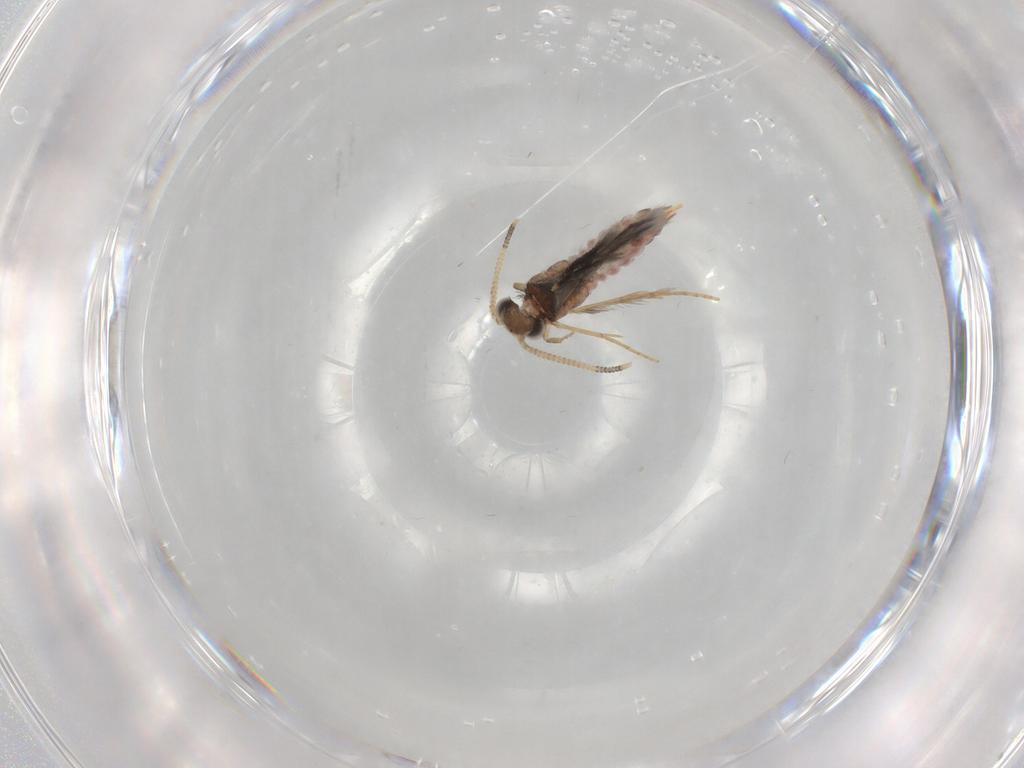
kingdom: Animalia
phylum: Arthropoda
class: Insecta
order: Trichoptera
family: Hydroptilidae
